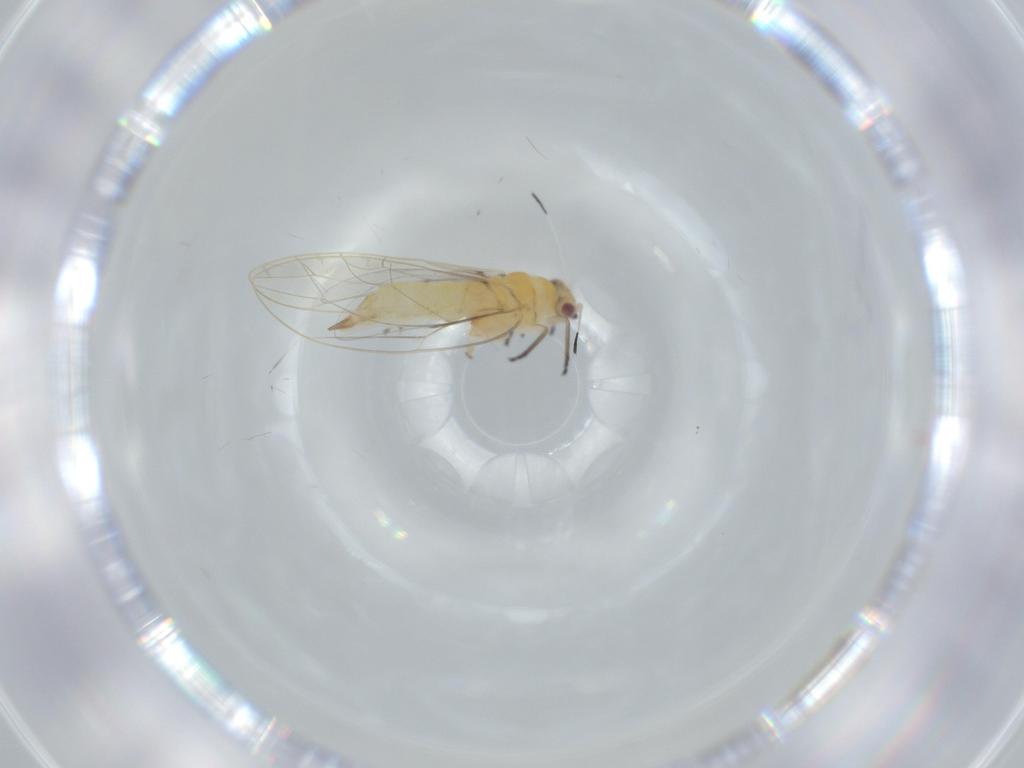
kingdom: Animalia
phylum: Arthropoda
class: Insecta
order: Hemiptera
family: Triozidae
